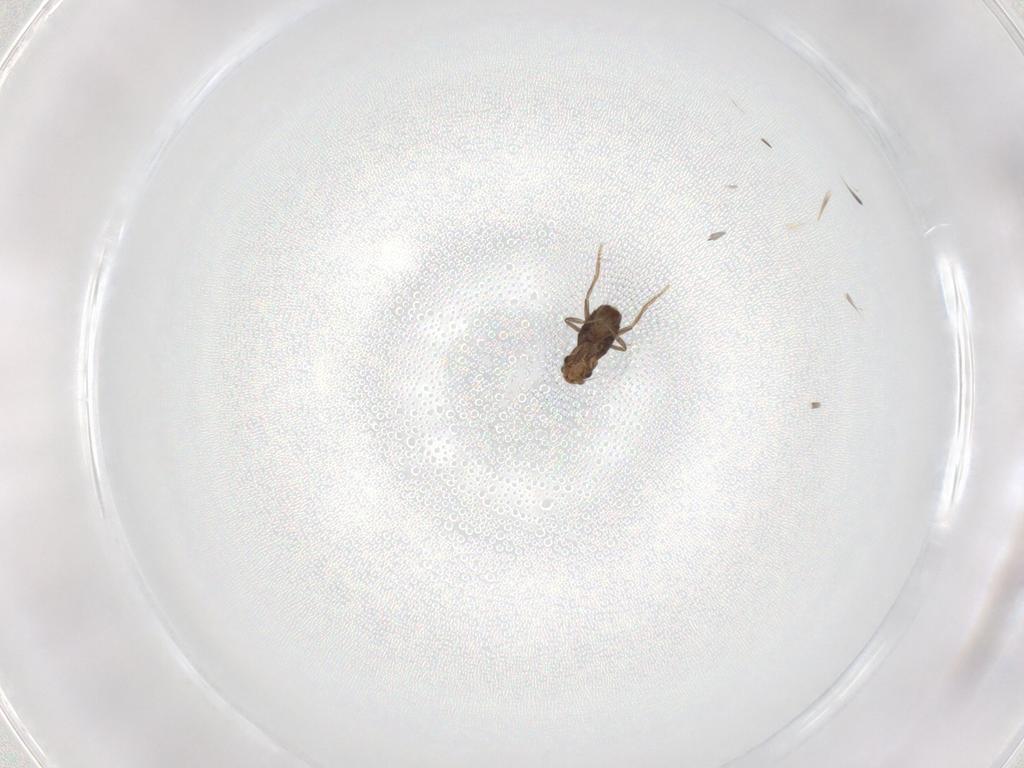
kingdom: Animalia
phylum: Arthropoda
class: Insecta
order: Diptera
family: Phoridae
